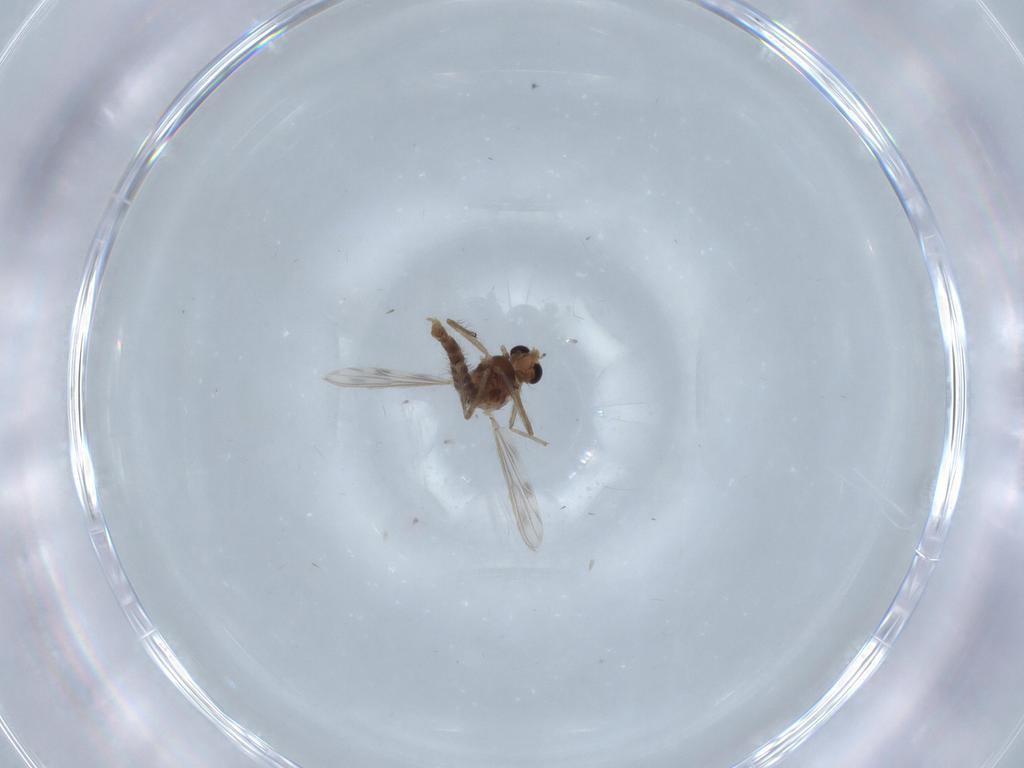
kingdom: Animalia
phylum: Arthropoda
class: Insecta
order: Diptera
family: Chironomidae
